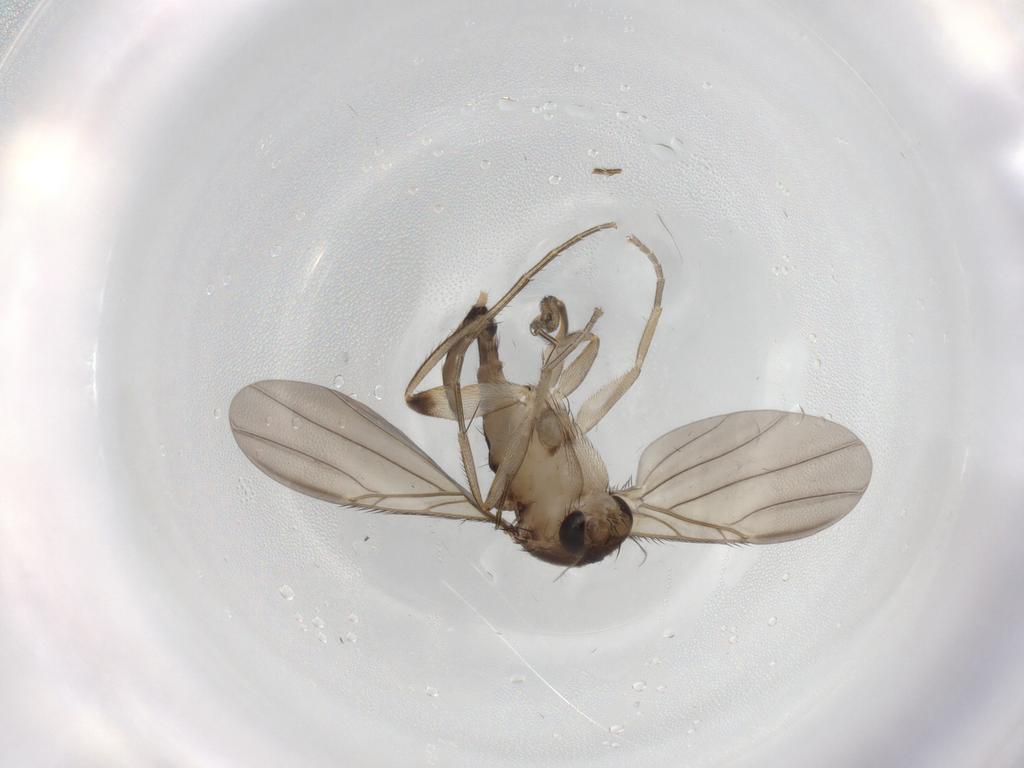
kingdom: Animalia
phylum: Arthropoda
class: Insecta
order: Diptera
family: Phoridae
